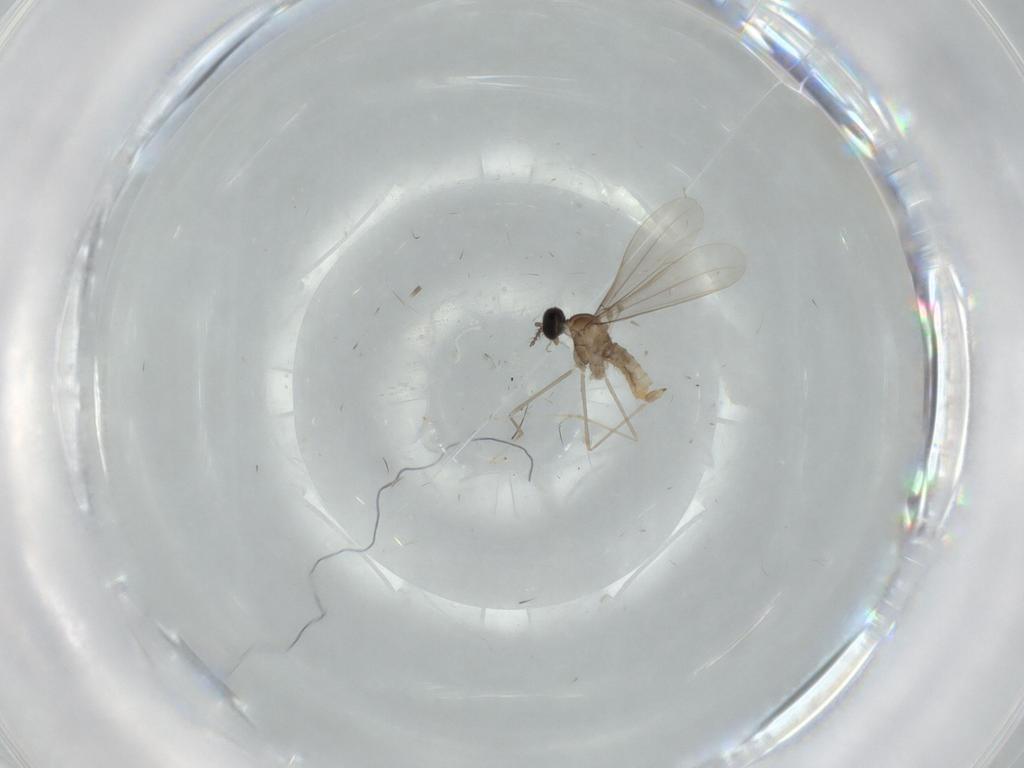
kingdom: Animalia
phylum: Arthropoda
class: Insecta
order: Diptera
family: Cecidomyiidae
